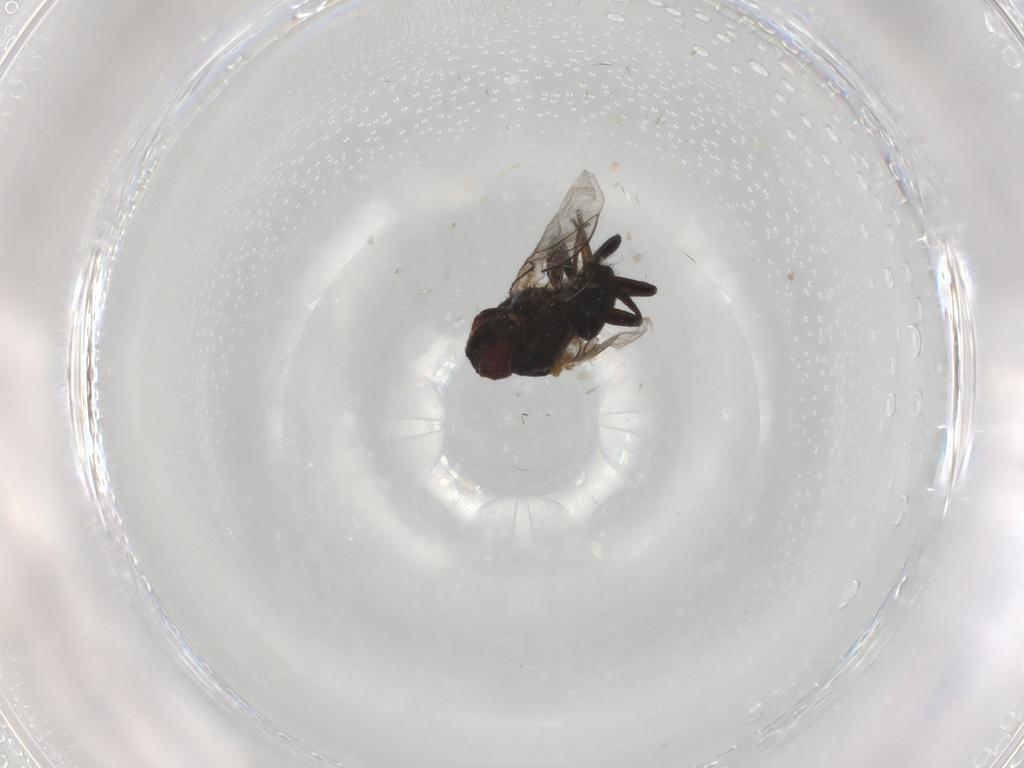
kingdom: Animalia
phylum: Arthropoda
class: Insecta
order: Diptera
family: Agromyzidae
